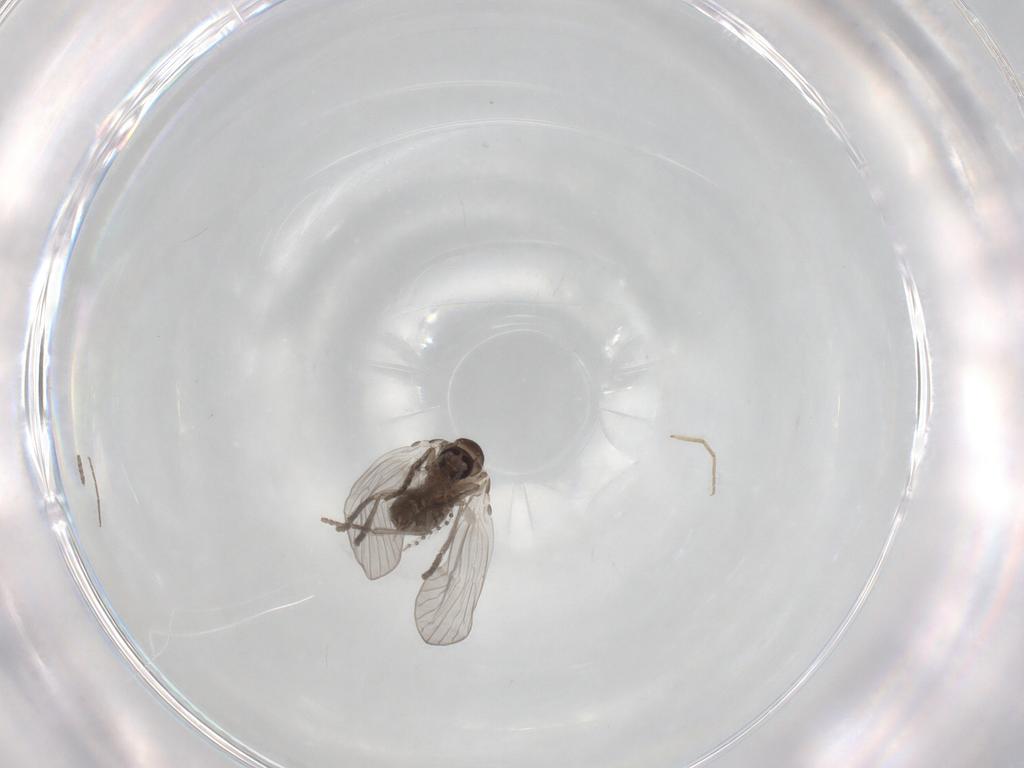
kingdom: Animalia
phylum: Arthropoda
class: Insecta
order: Diptera
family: Psychodidae
